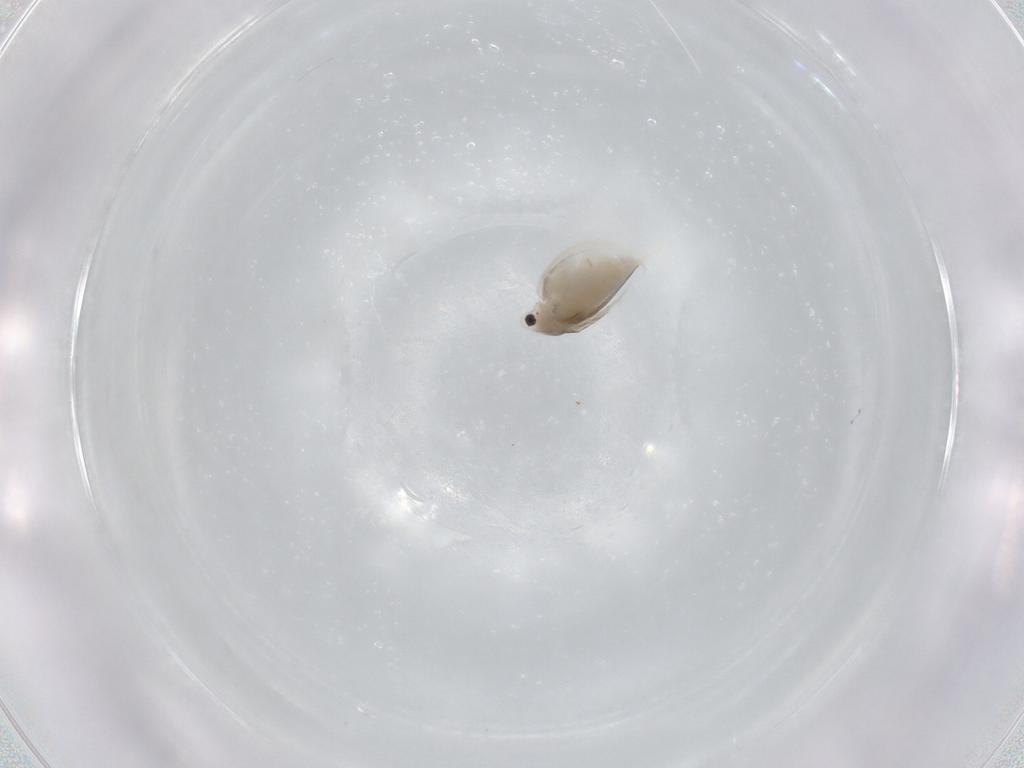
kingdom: Animalia
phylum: Arthropoda
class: Branchiopoda
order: Diplostraca
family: Daphniidae
